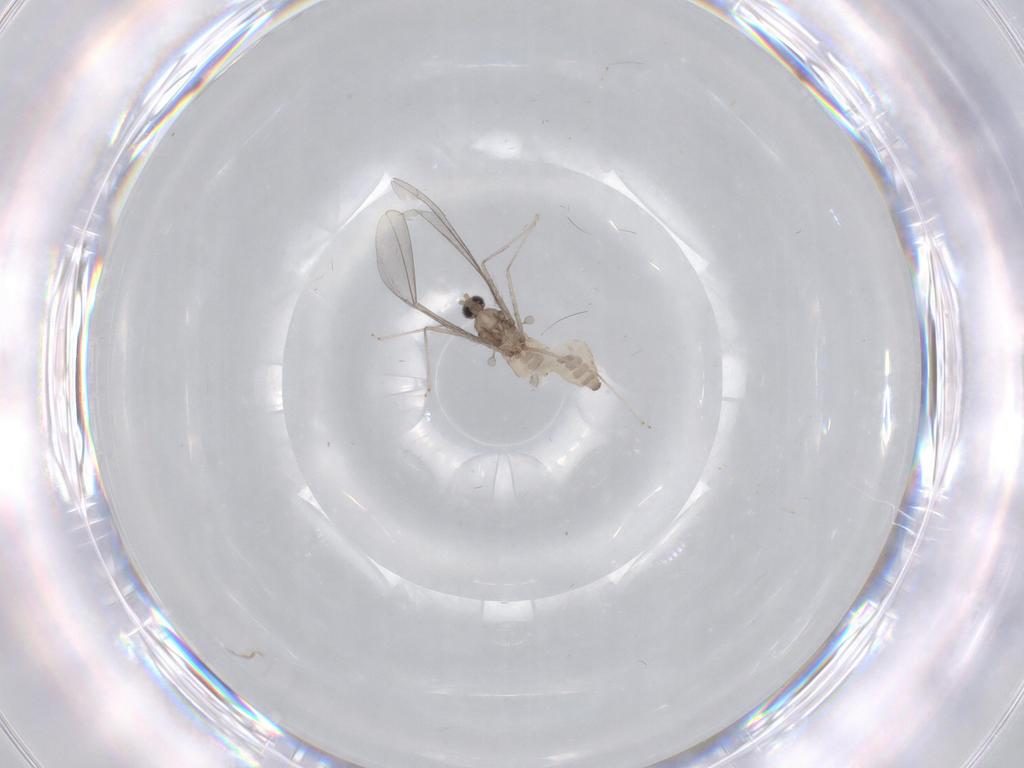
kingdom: Animalia
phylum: Arthropoda
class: Insecta
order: Diptera
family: Cecidomyiidae
